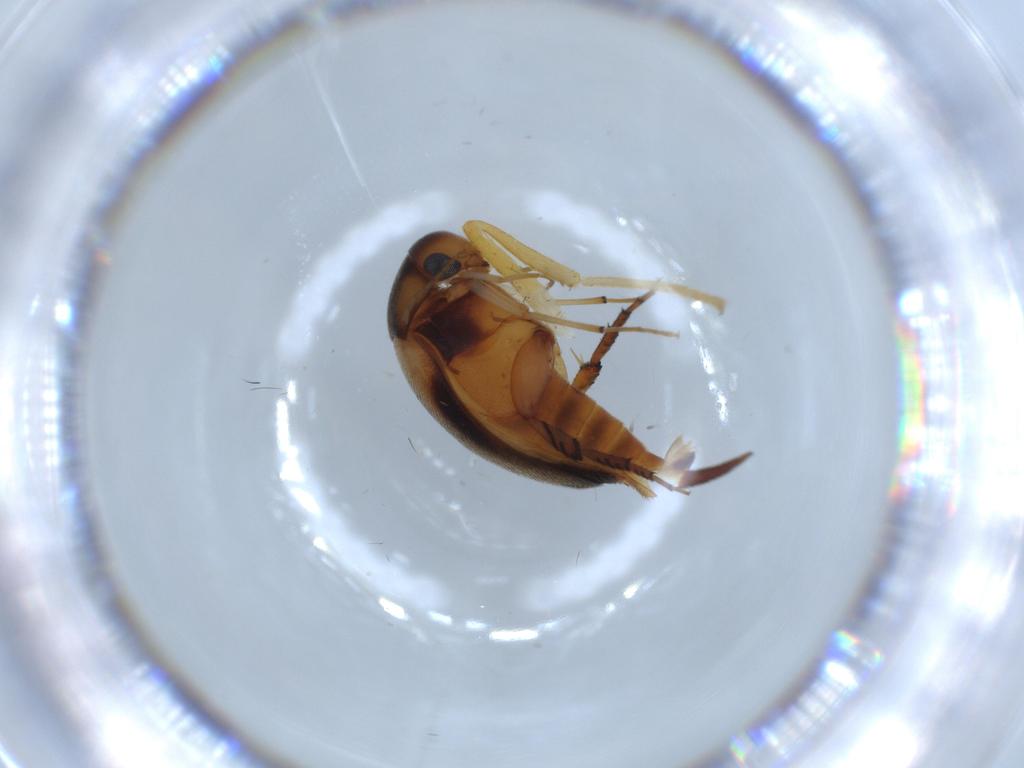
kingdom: Animalia
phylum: Arthropoda
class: Insecta
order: Coleoptera
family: Mordellidae
